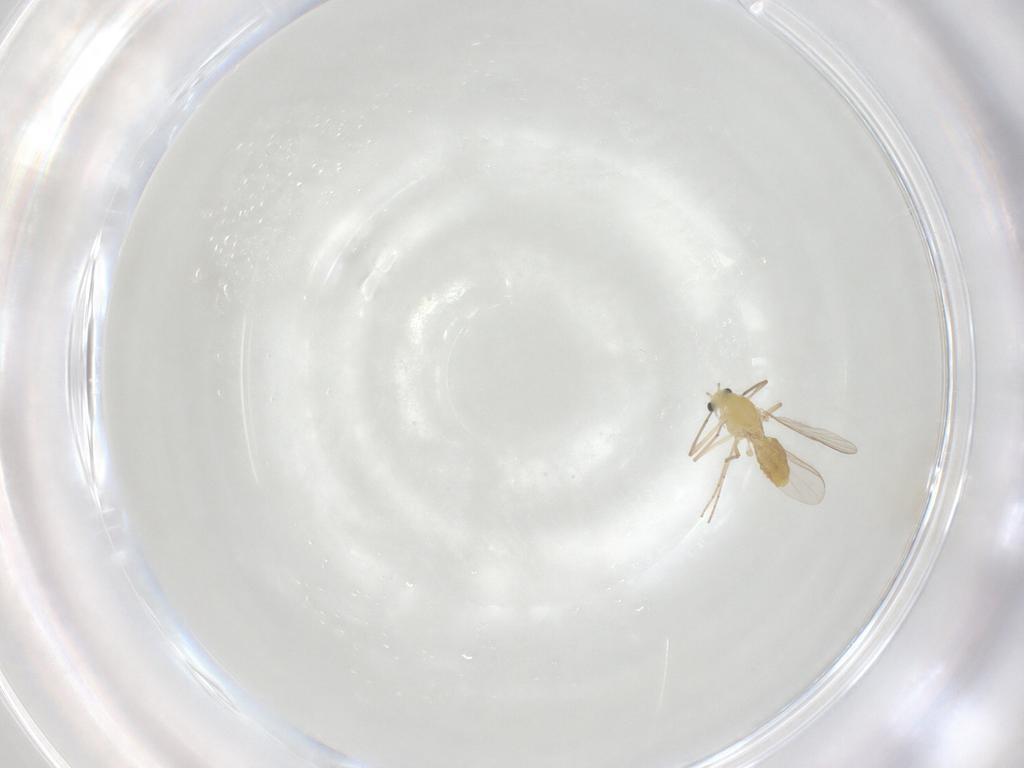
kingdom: Animalia
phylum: Arthropoda
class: Insecta
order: Diptera
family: Chironomidae
